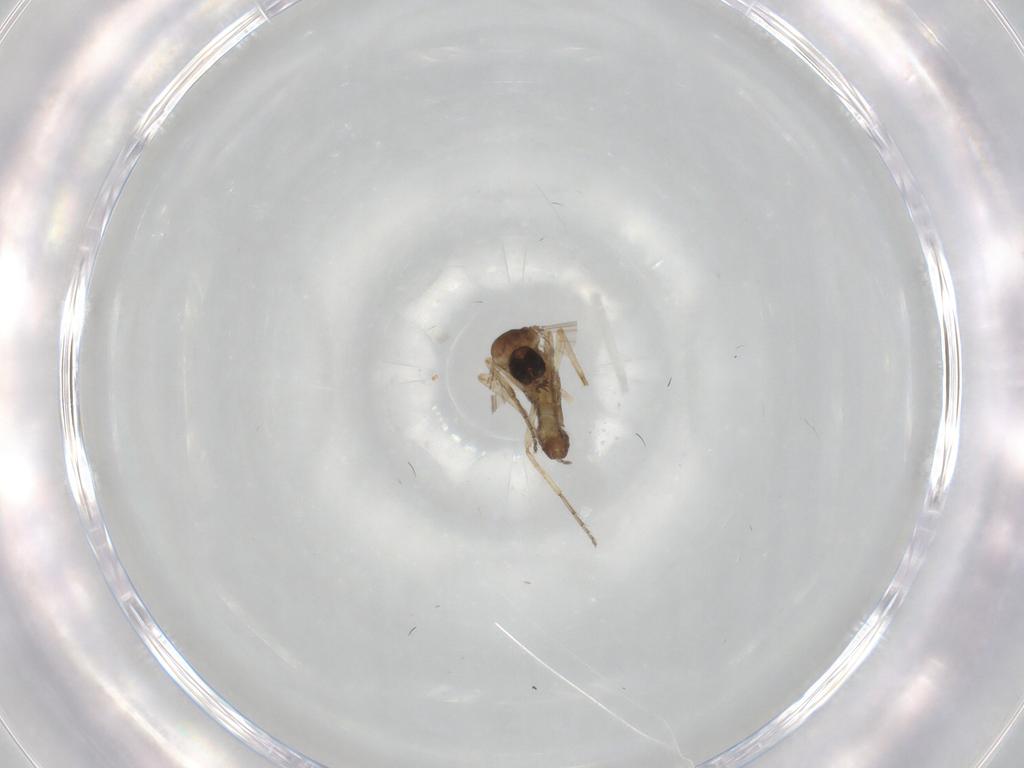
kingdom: Animalia
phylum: Arthropoda
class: Insecta
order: Diptera
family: Ceratopogonidae
